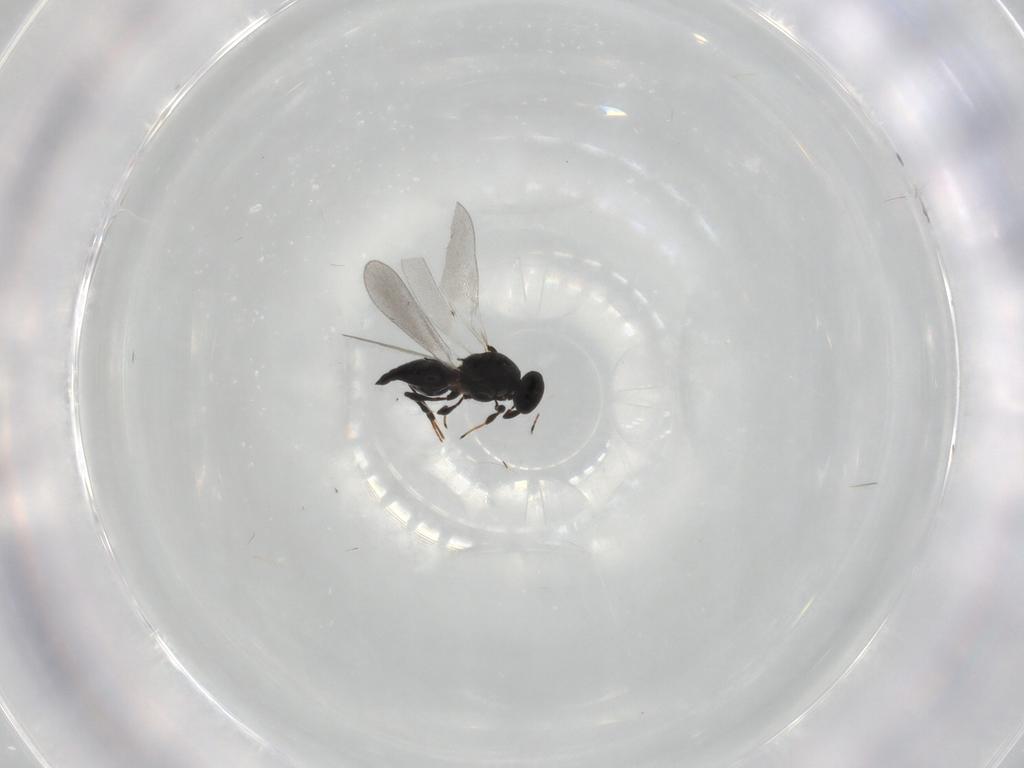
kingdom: Animalia
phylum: Arthropoda
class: Insecta
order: Hymenoptera
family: Platygastridae
